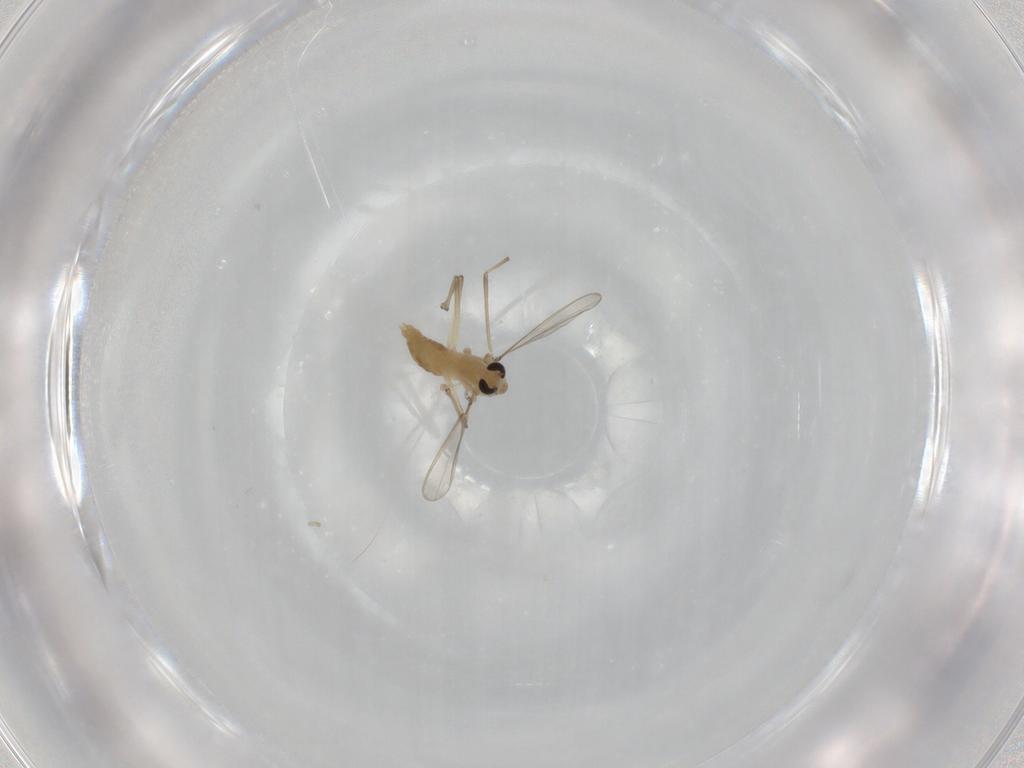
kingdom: Animalia
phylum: Arthropoda
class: Insecta
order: Diptera
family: Chironomidae
